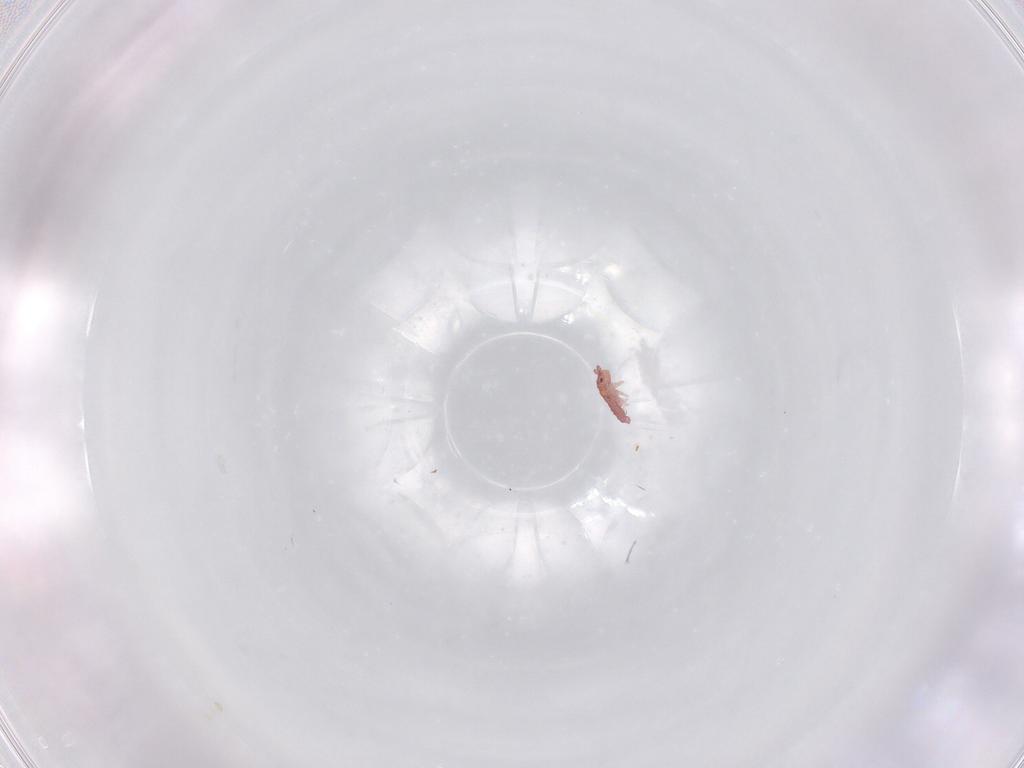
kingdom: Animalia
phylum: Arthropoda
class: Collembola
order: Poduromorpha
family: Hypogastruridae
